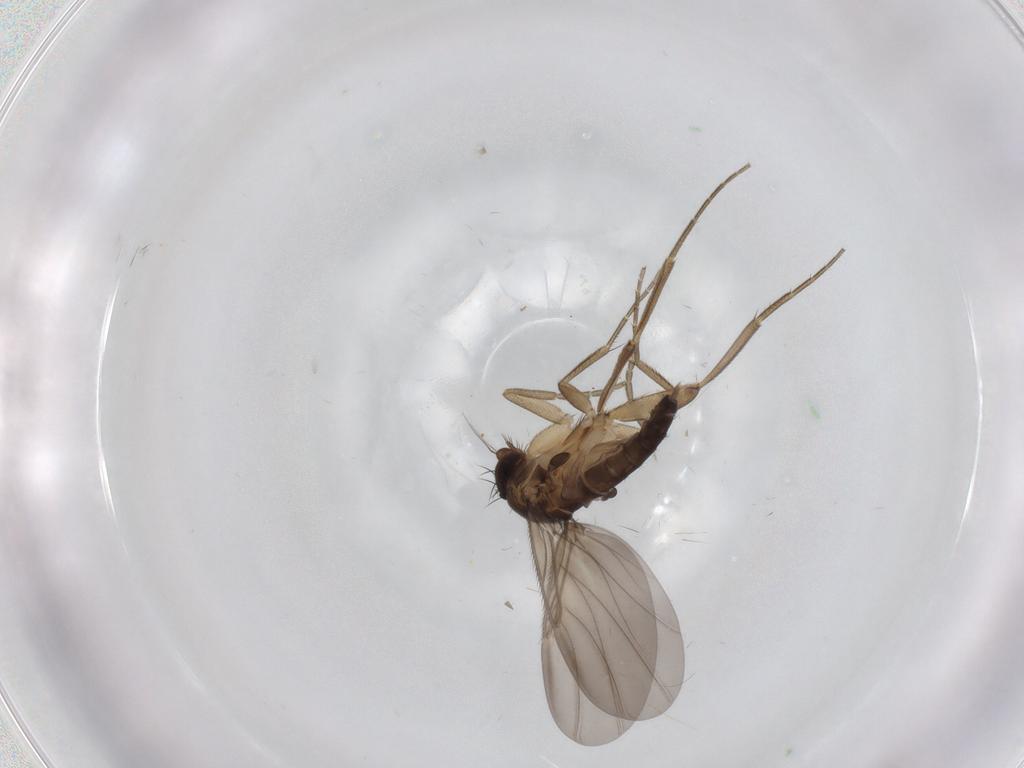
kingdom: Animalia
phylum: Arthropoda
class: Insecta
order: Diptera
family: Phoridae
